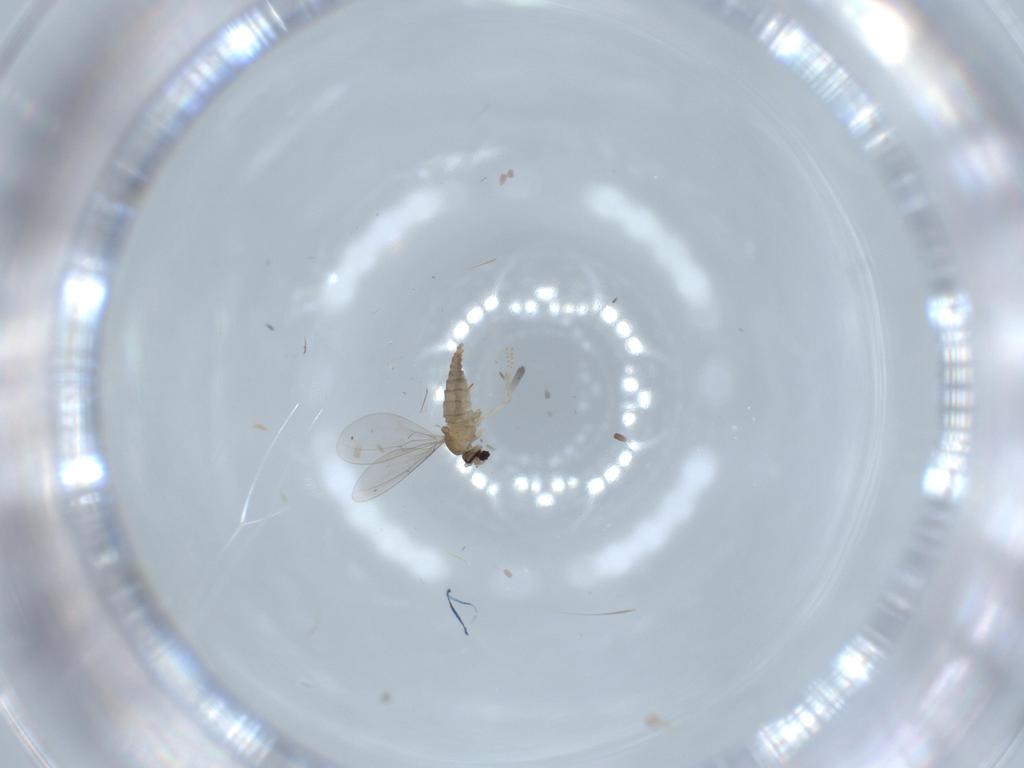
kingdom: Animalia
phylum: Arthropoda
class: Insecta
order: Diptera
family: Cecidomyiidae
